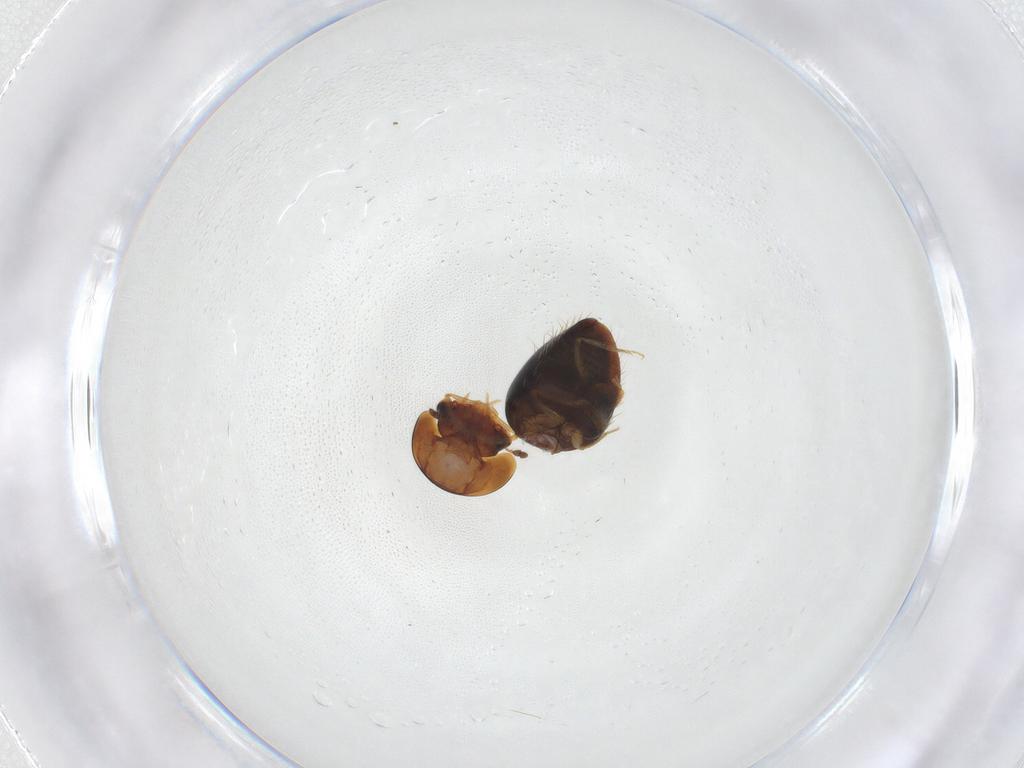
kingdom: Animalia
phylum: Arthropoda
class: Insecta
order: Coleoptera
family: Clambidae
